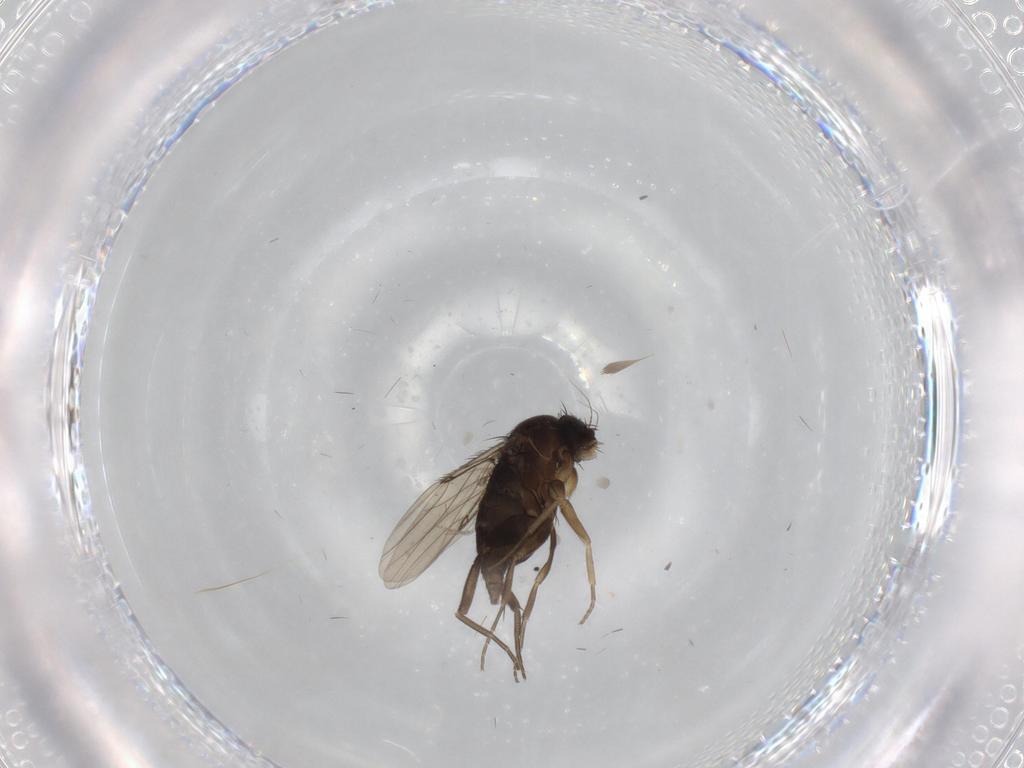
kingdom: Animalia
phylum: Arthropoda
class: Insecta
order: Diptera
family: Phoridae
